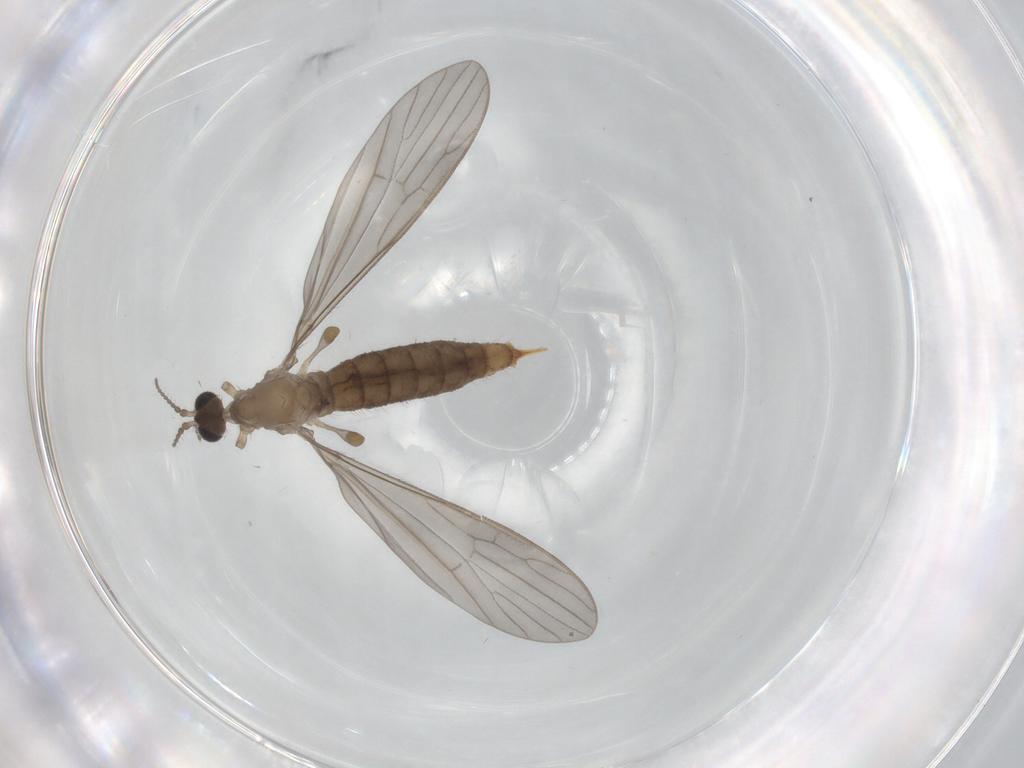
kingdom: Animalia
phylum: Arthropoda
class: Insecta
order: Diptera
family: Limoniidae
